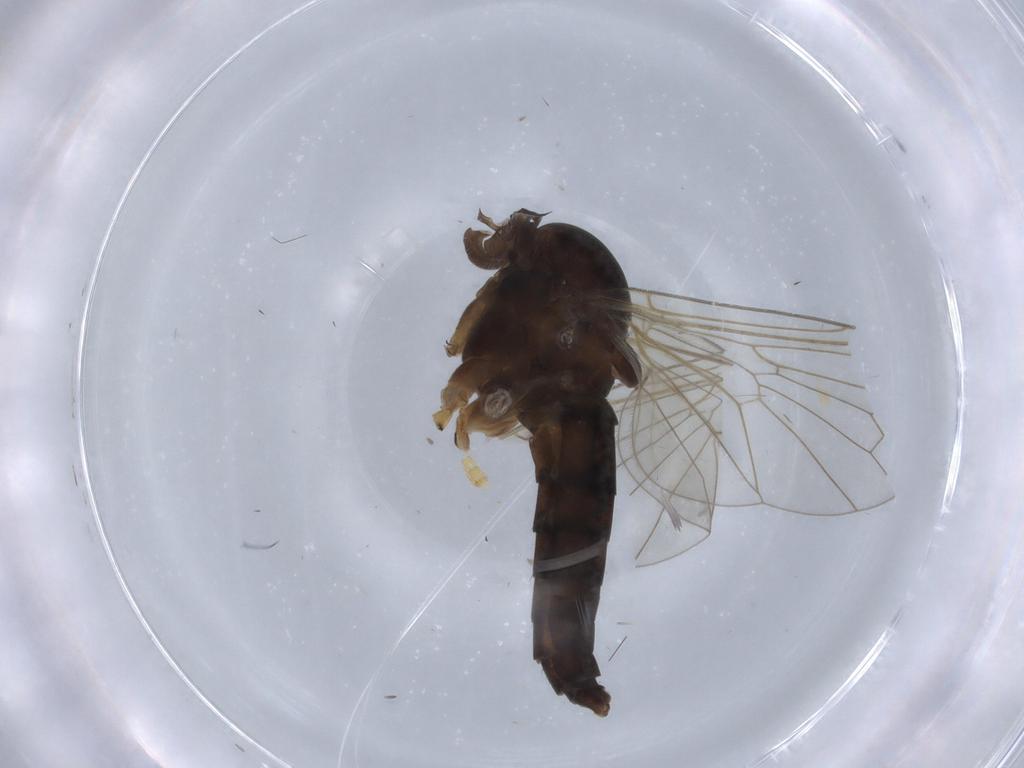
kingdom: Animalia
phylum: Arthropoda
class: Insecta
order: Diptera
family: Rhagionidae
